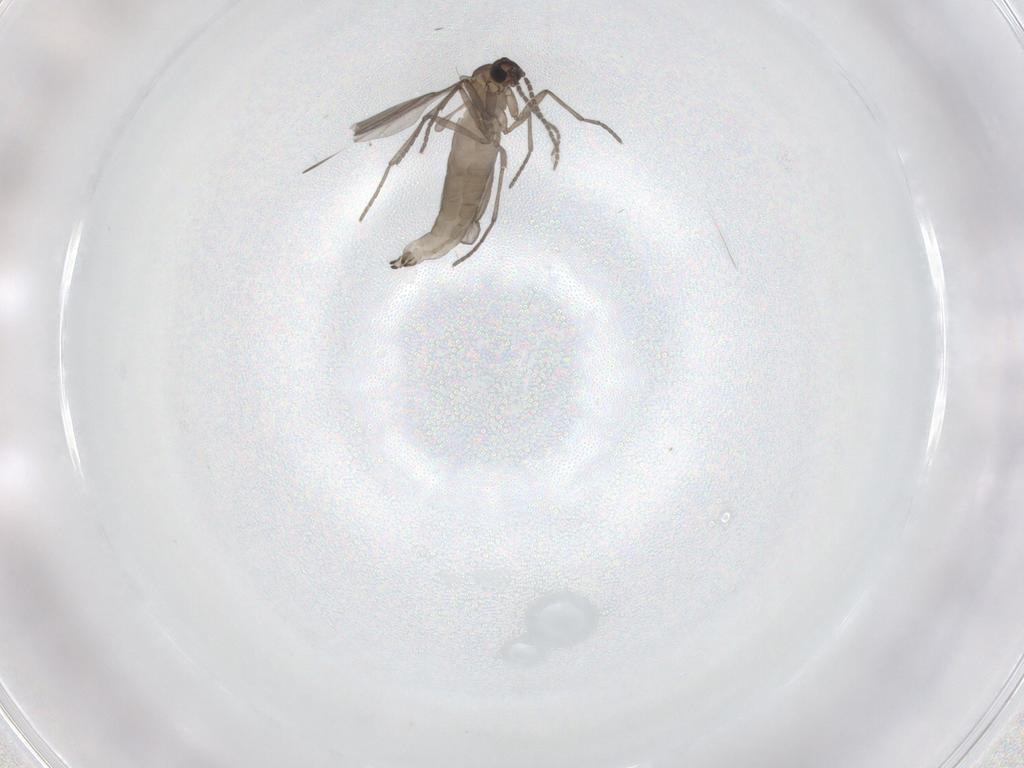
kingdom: Animalia
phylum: Arthropoda
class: Insecta
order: Diptera
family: Sciaridae
